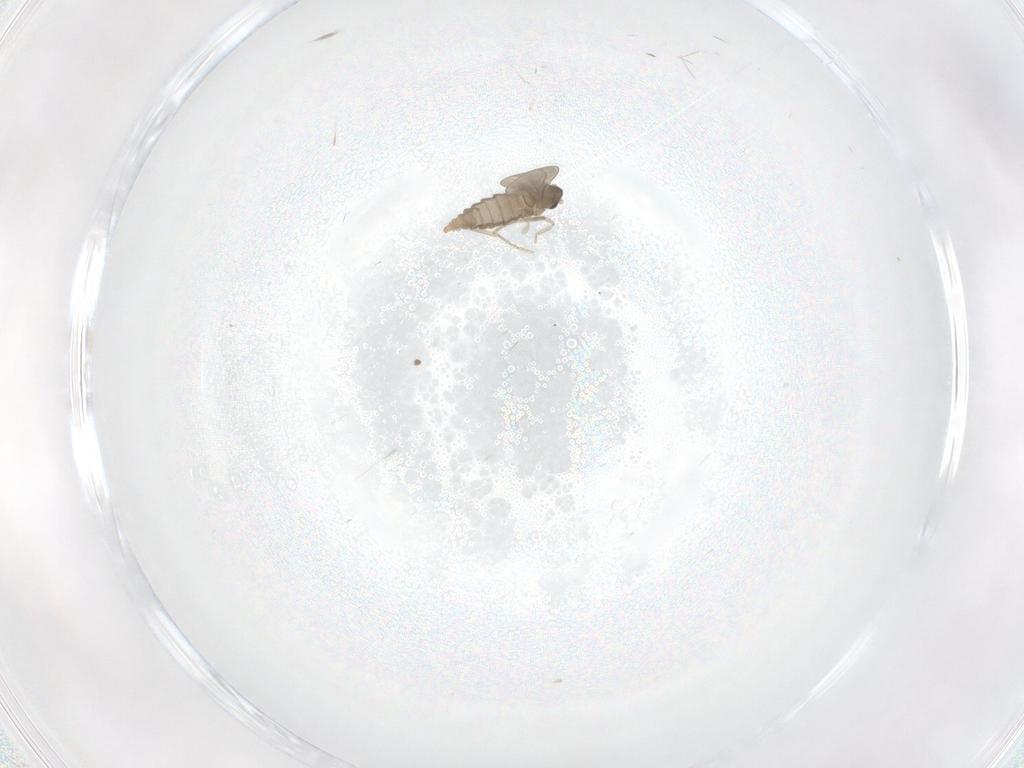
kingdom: Animalia
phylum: Arthropoda
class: Insecta
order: Diptera
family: Cecidomyiidae
